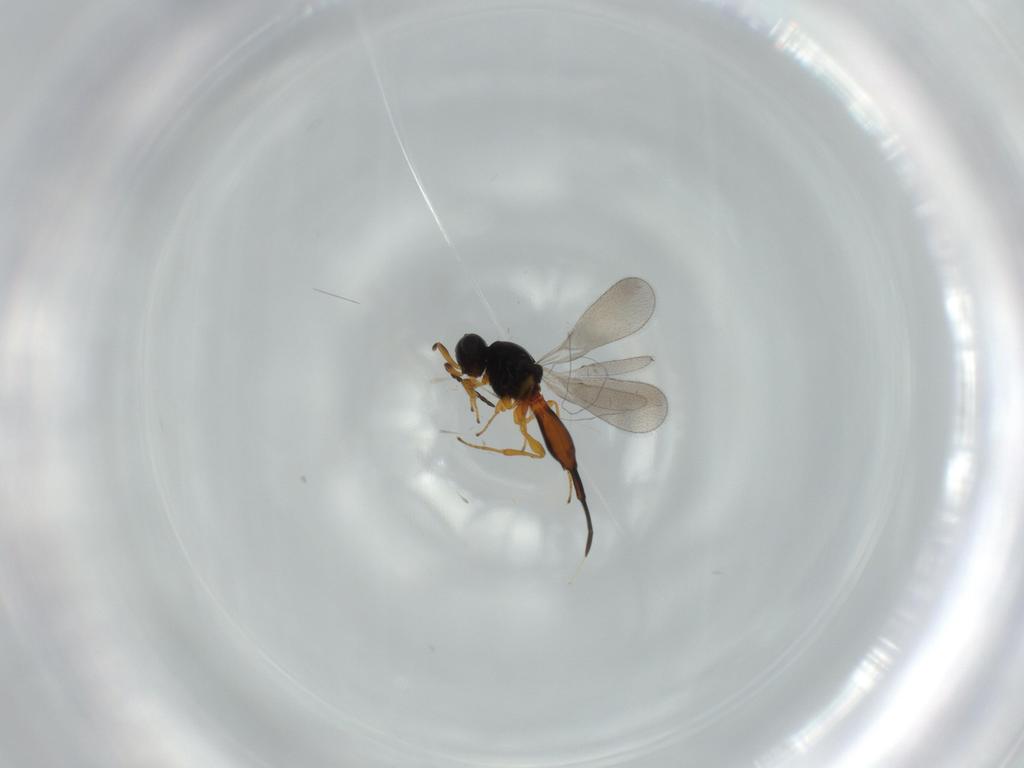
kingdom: Animalia
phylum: Arthropoda
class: Insecta
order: Hymenoptera
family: Platygastridae
